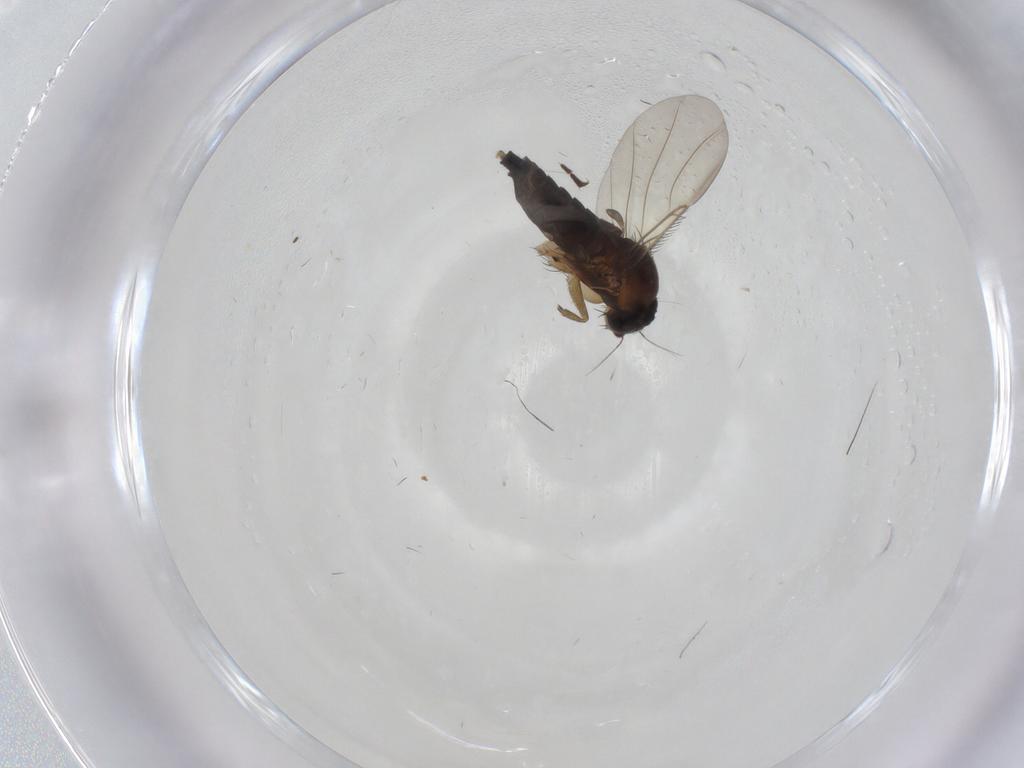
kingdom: Animalia
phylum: Arthropoda
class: Insecta
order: Diptera
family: Phoridae
